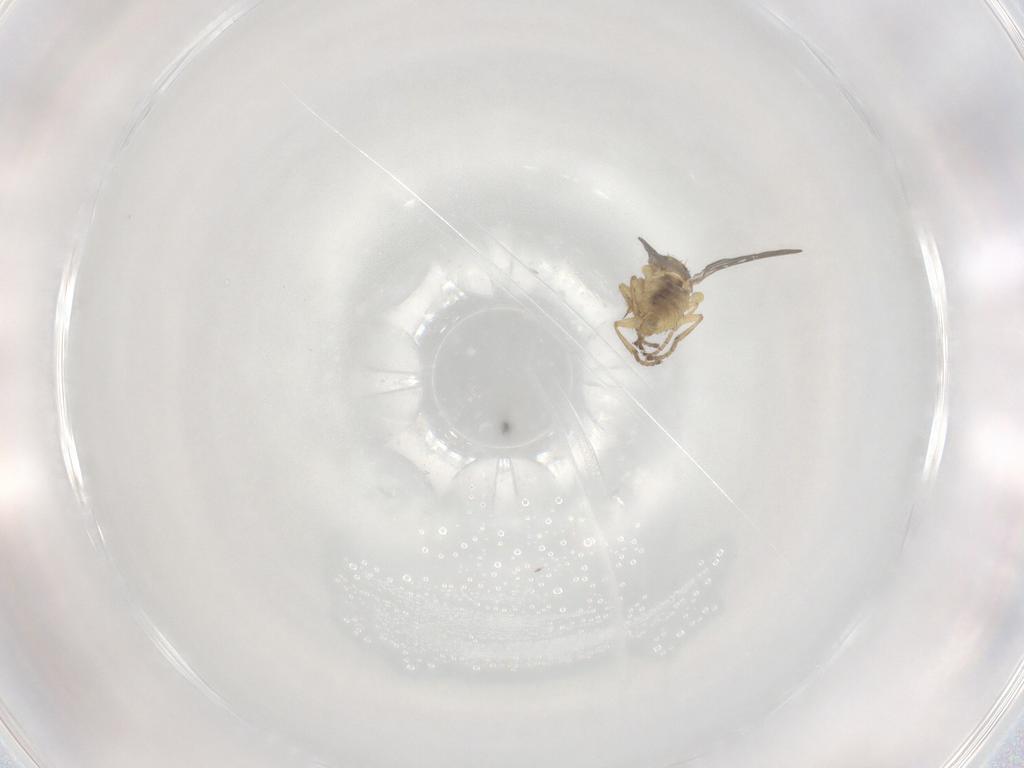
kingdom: Animalia
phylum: Arthropoda
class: Insecta
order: Diptera
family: Agromyzidae
